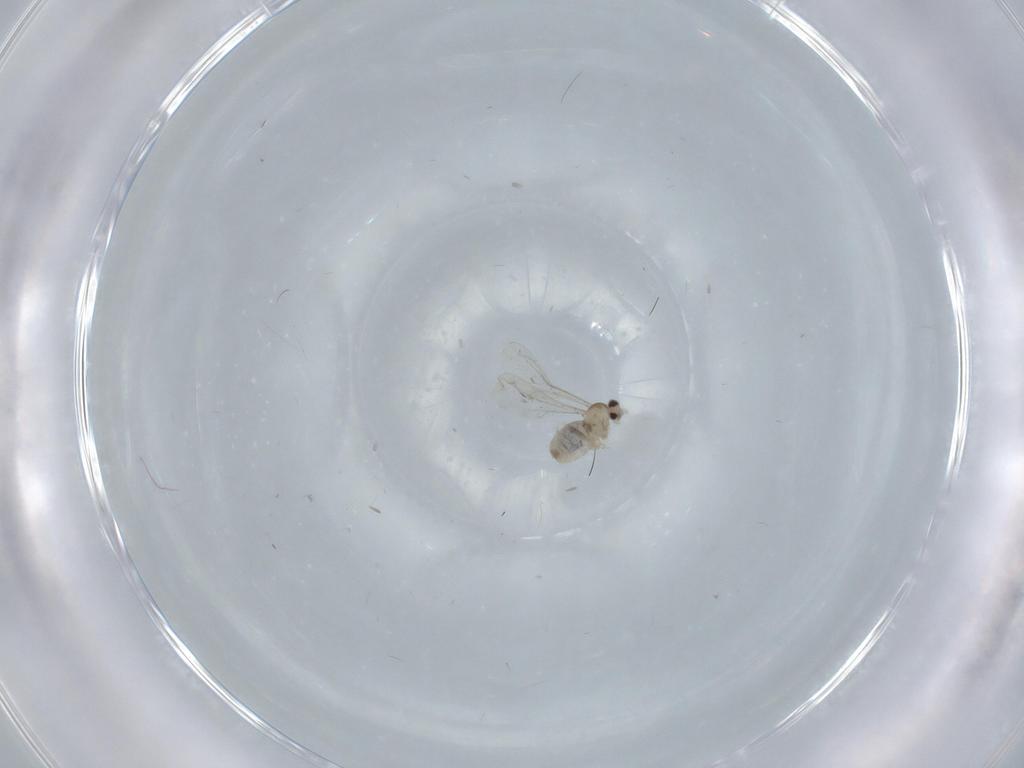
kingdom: Animalia
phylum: Arthropoda
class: Insecta
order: Diptera
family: Cecidomyiidae
